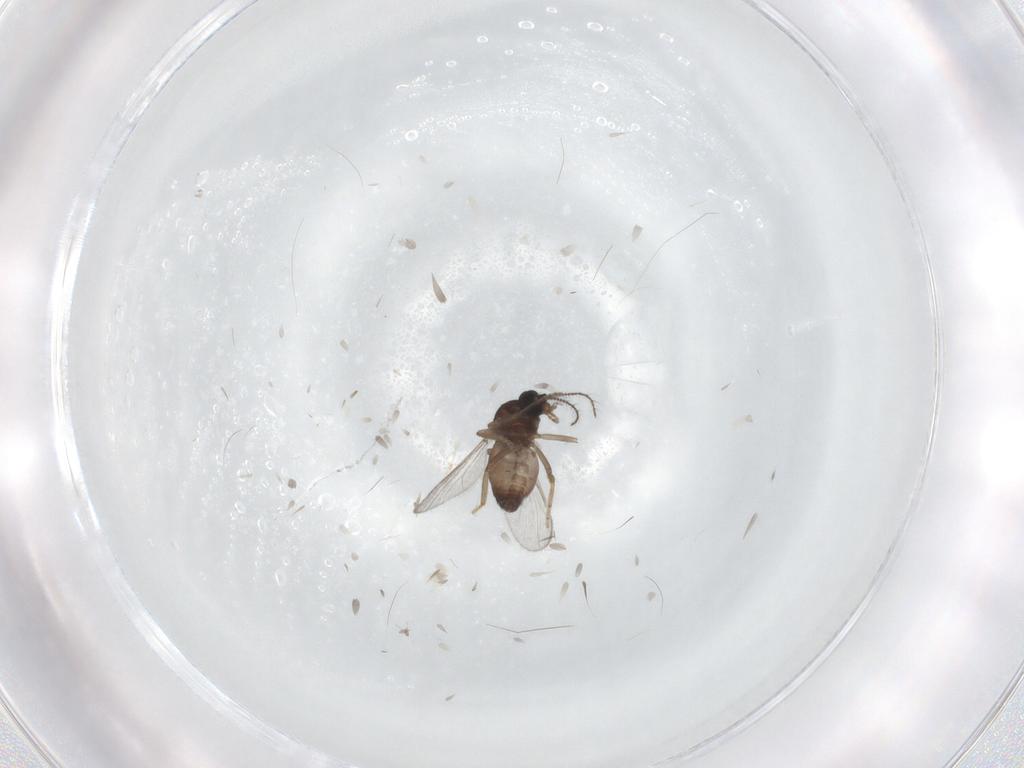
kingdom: Animalia
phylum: Arthropoda
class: Insecta
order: Diptera
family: Ceratopogonidae
